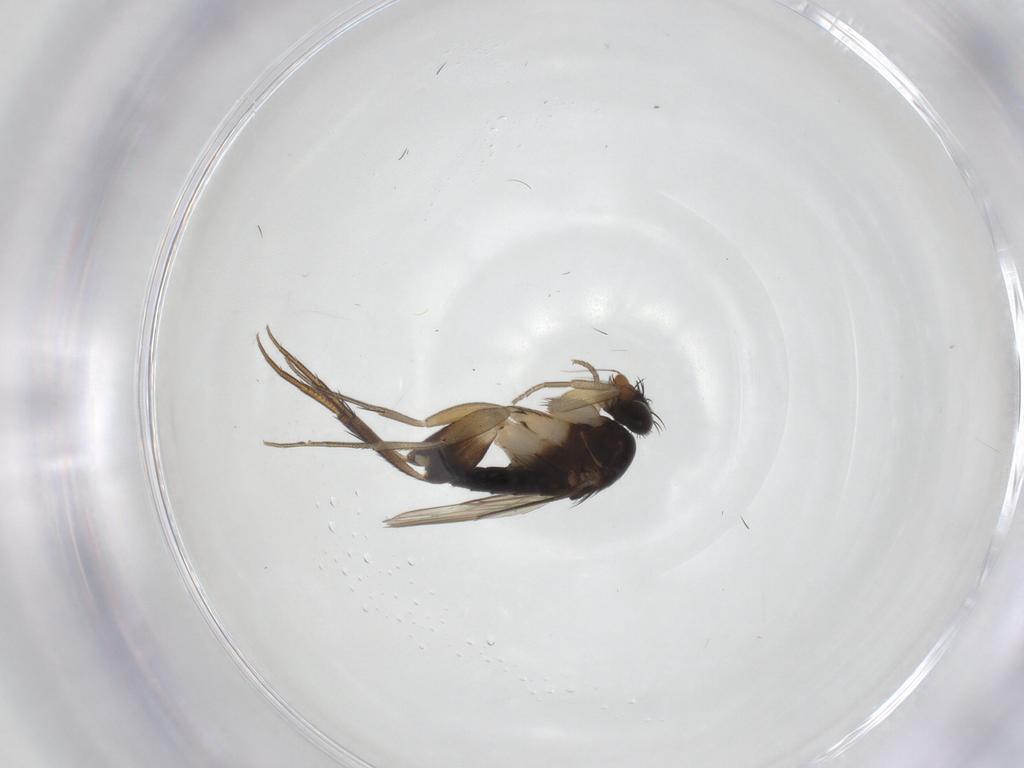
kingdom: Animalia
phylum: Arthropoda
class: Insecta
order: Diptera
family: Phoridae
